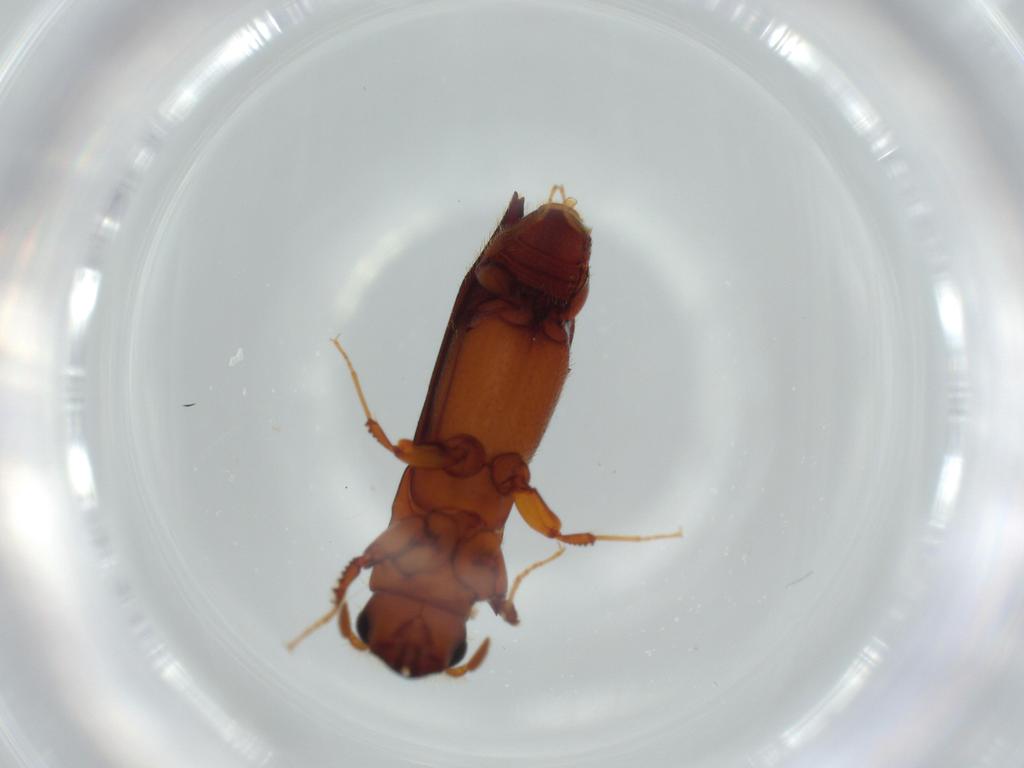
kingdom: Animalia
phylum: Arthropoda
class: Insecta
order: Coleoptera
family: Curculionidae
